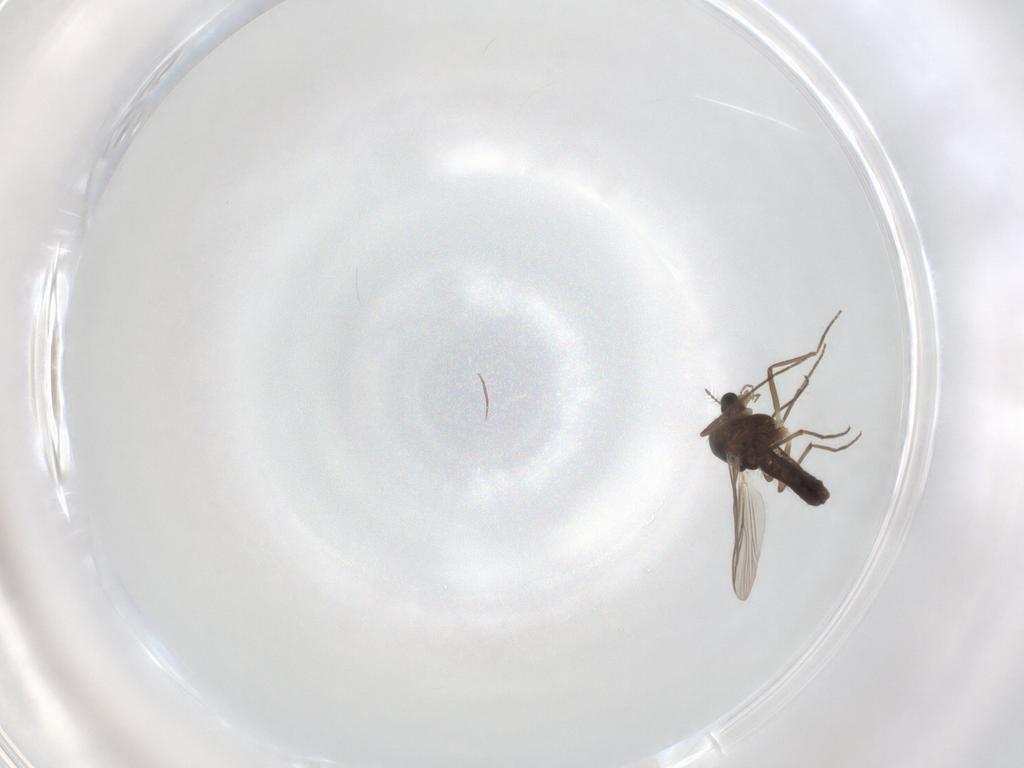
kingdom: Animalia
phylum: Arthropoda
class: Insecta
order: Diptera
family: Chironomidae
